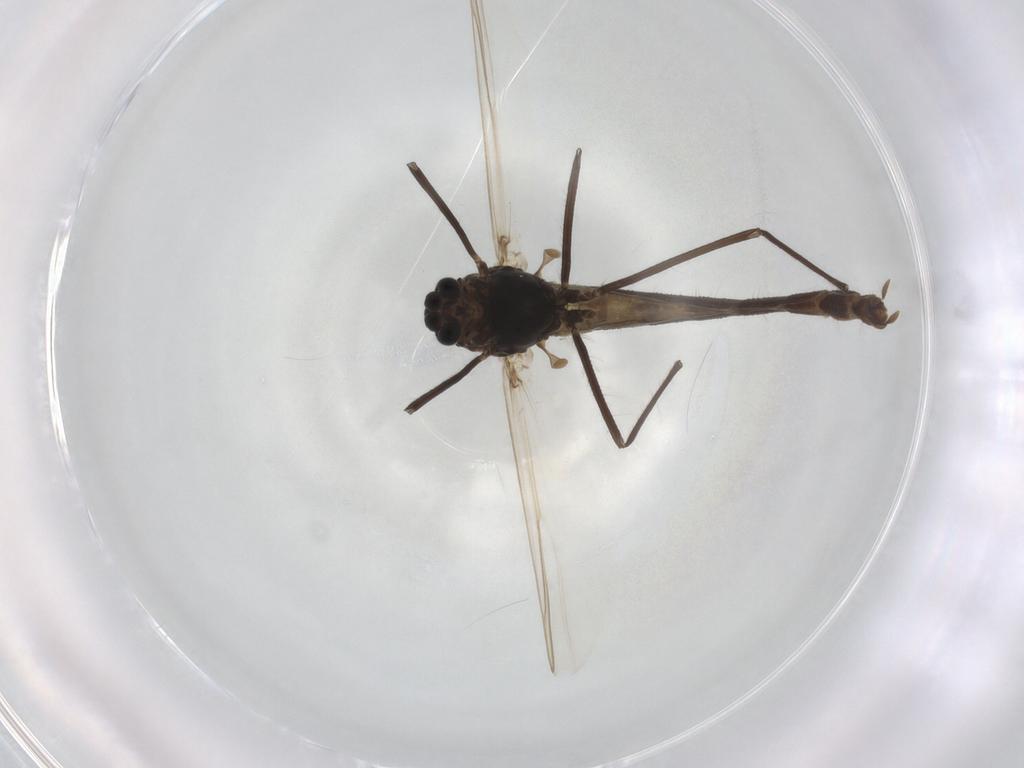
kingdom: Animalia
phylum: Arthropoda
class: Insecta
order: Diptera
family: Chironomidae
